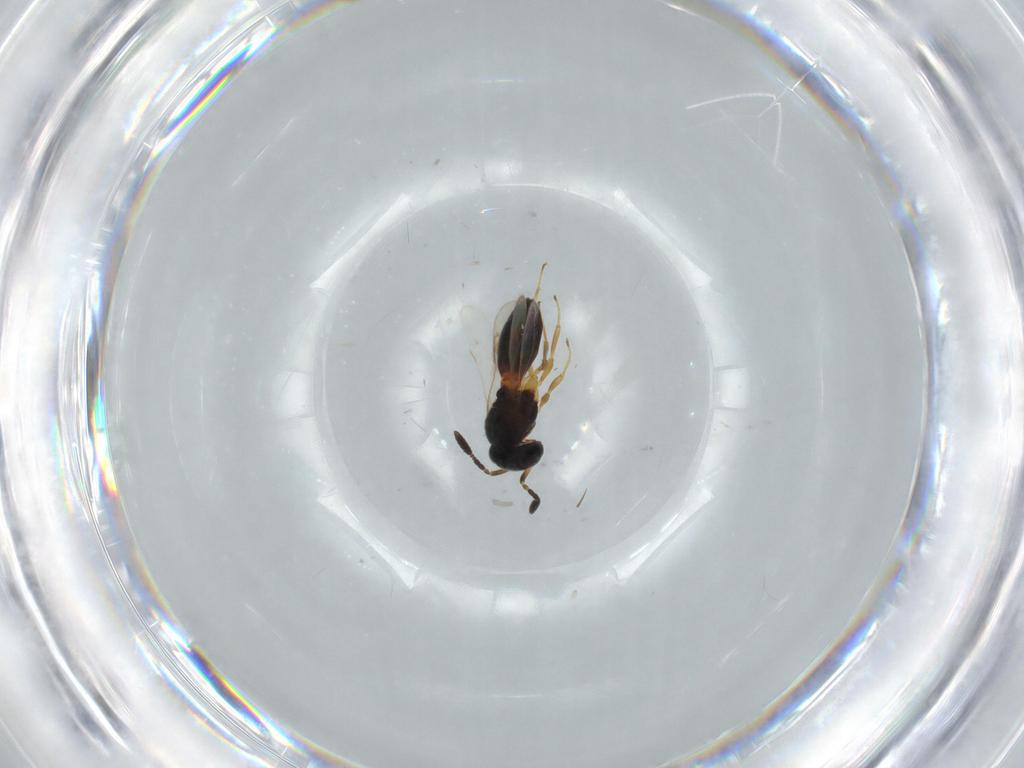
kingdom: Animalia
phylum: Arthropoda
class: Insecta
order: Hymenoptera
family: Scelionidae
